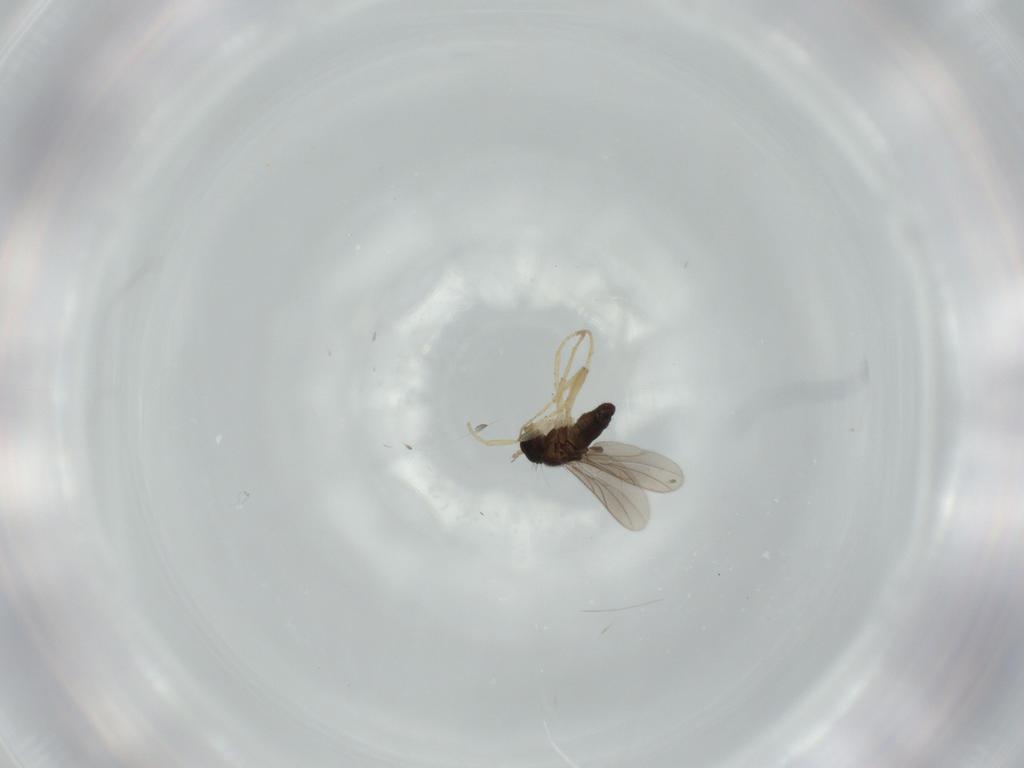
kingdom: Animalia
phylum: Arthropoda
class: Insecta
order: Diptera
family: Hybotidae
